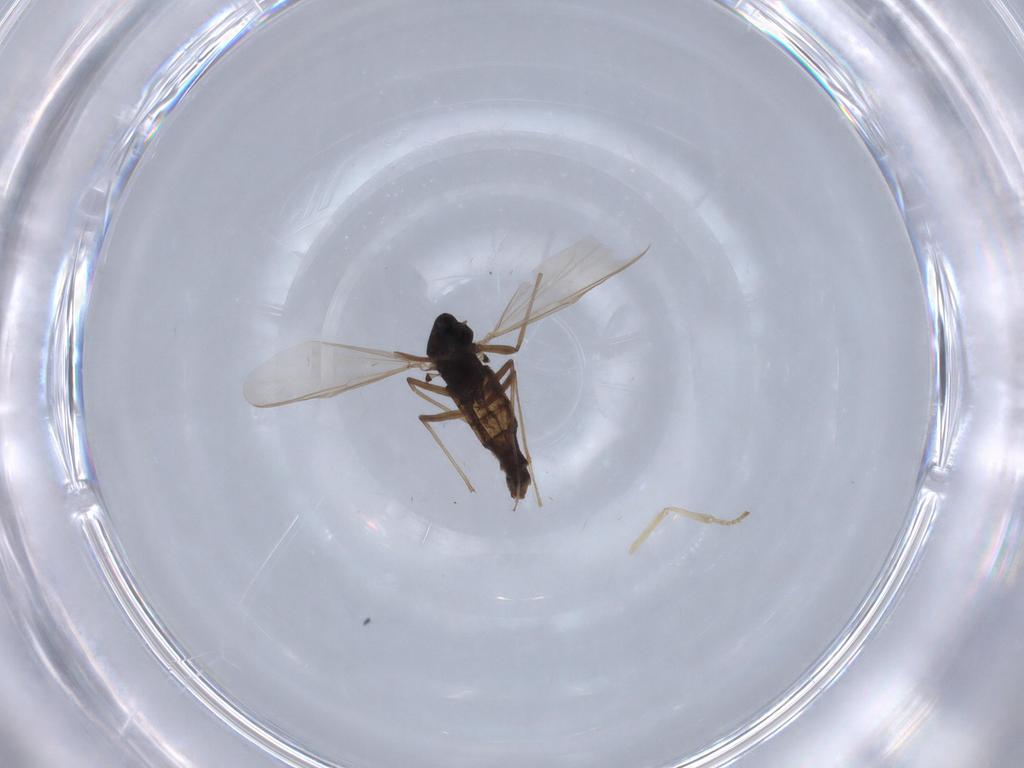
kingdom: Animalia
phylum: Arthropoda
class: Insecta
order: Diptera
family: Chironomidae
